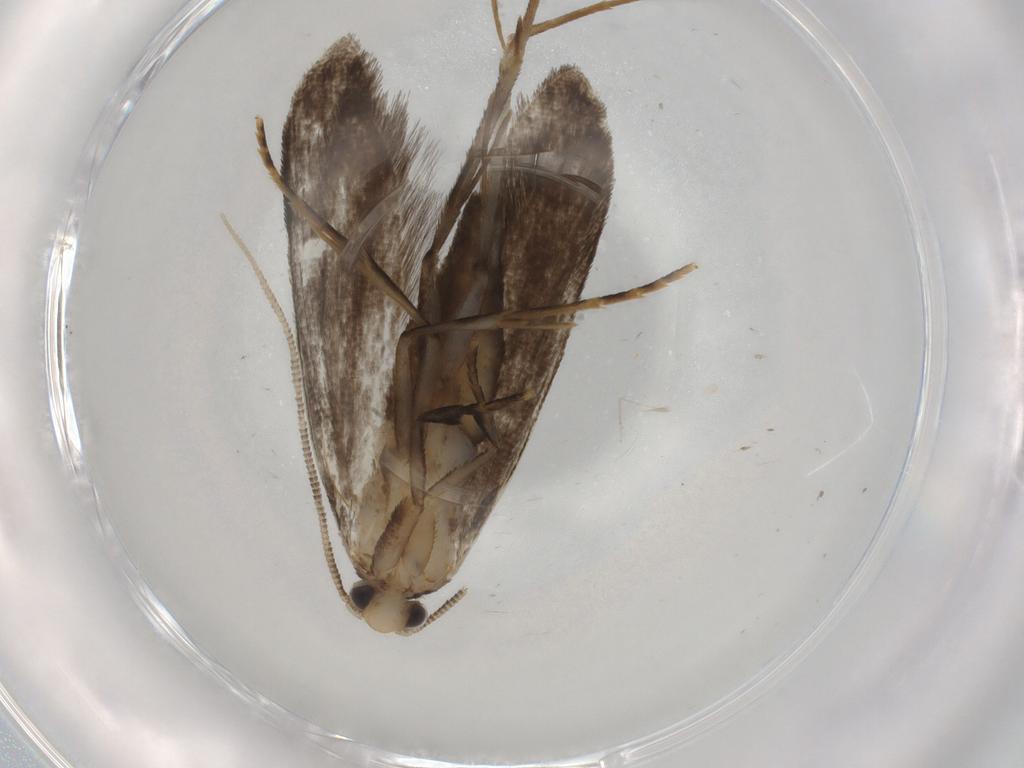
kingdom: Animalia
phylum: Arthropoda
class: Insecta
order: Lepidoptera
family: Tineidae
